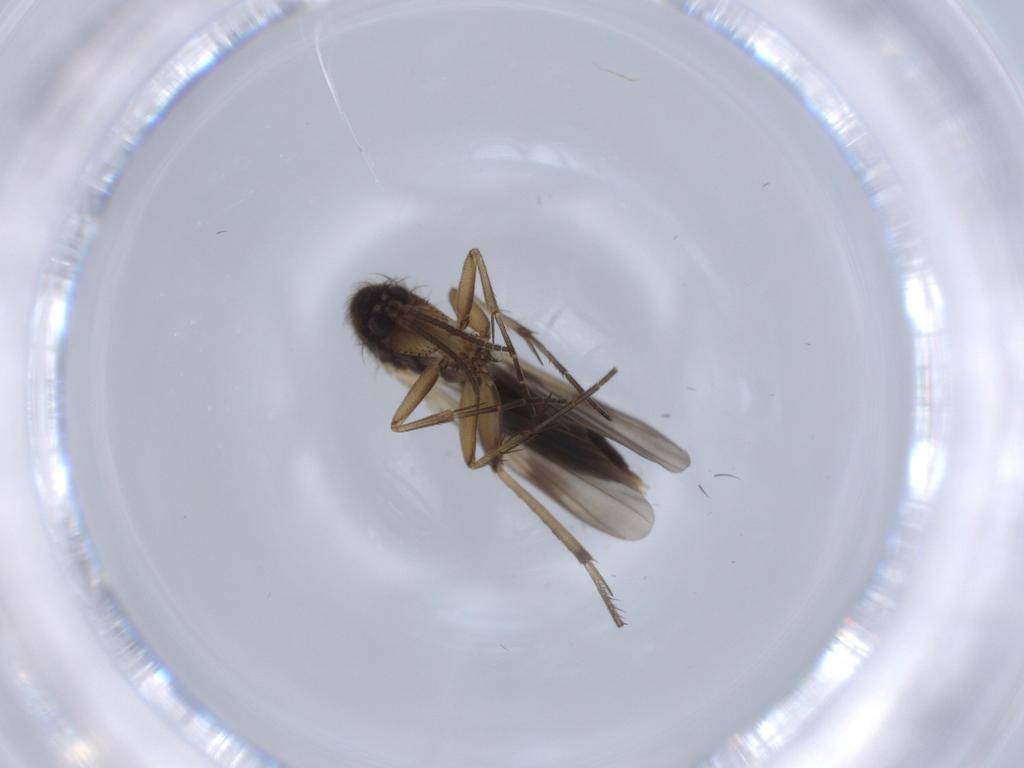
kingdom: Animalia
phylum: Arthropoda
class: Insecta
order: Diptera
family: Mycetophilidae
